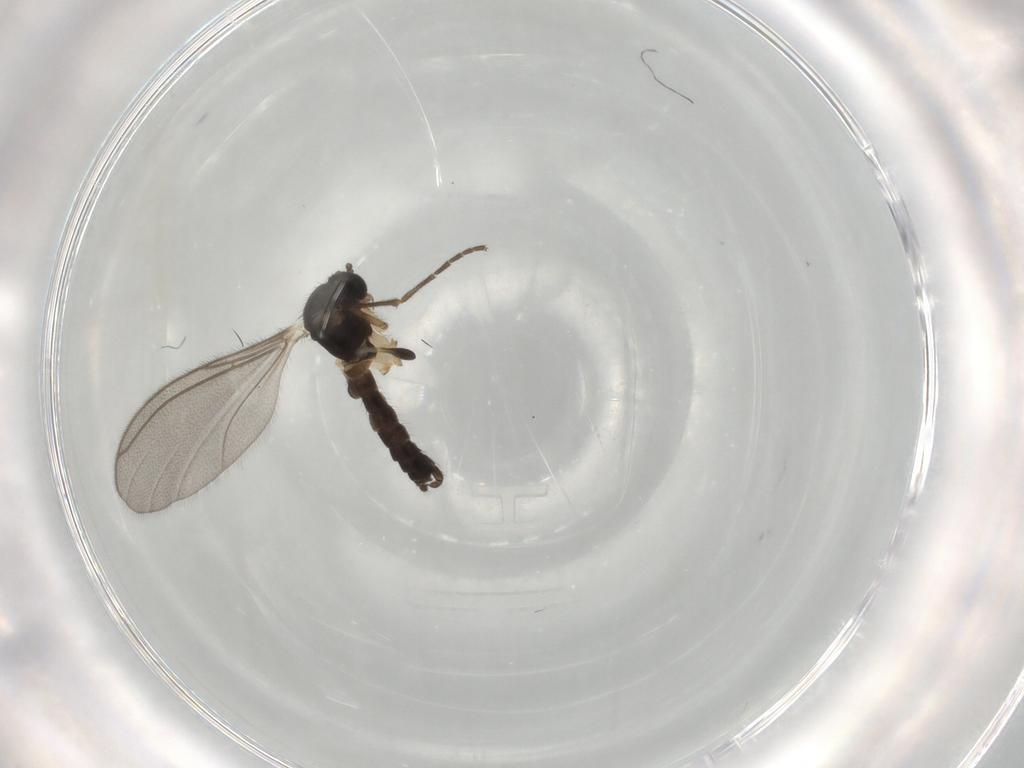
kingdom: Animalia
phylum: Arthropoda
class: Insecta
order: Diptera
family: Mycetophilidae
